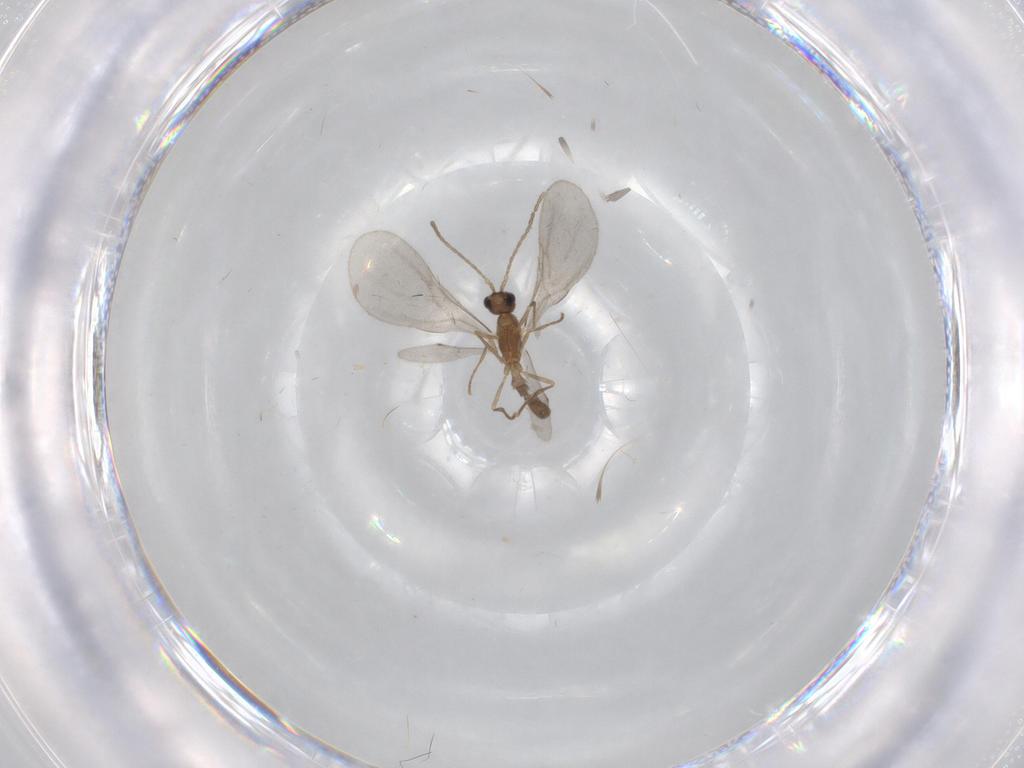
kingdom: Animalia
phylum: Arthropoda
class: Insecta
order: Hymenoptera
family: Formicidae
